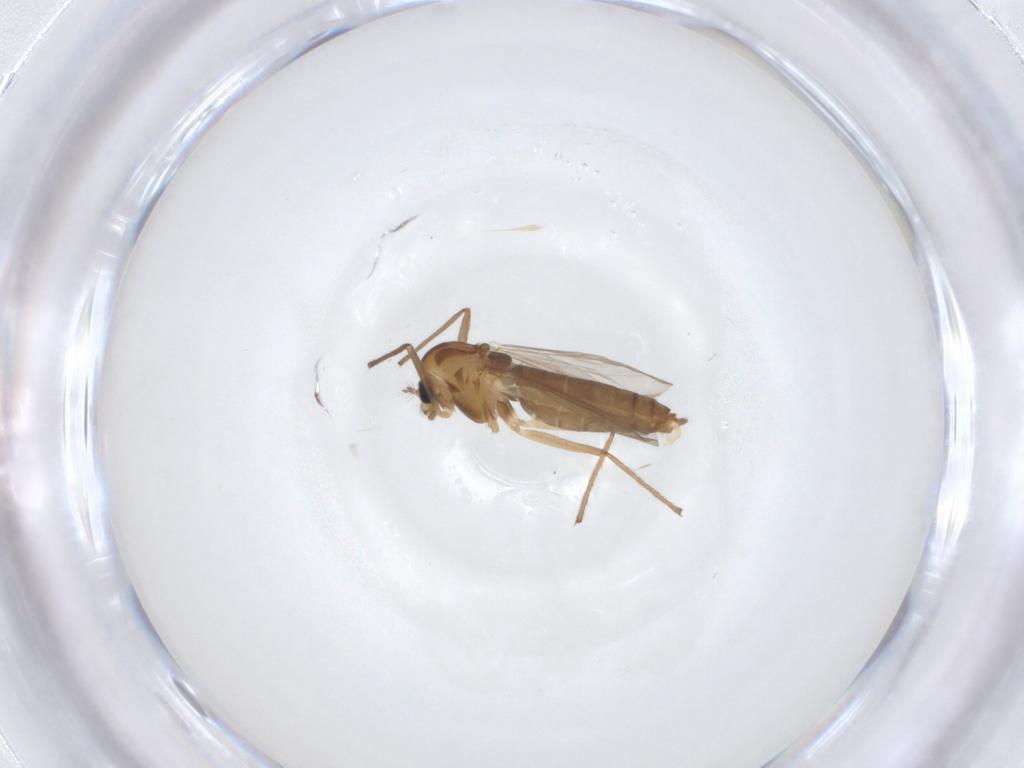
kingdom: Animalia
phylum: Arthropoda
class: Insecta
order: Diptera
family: Chironomidae
